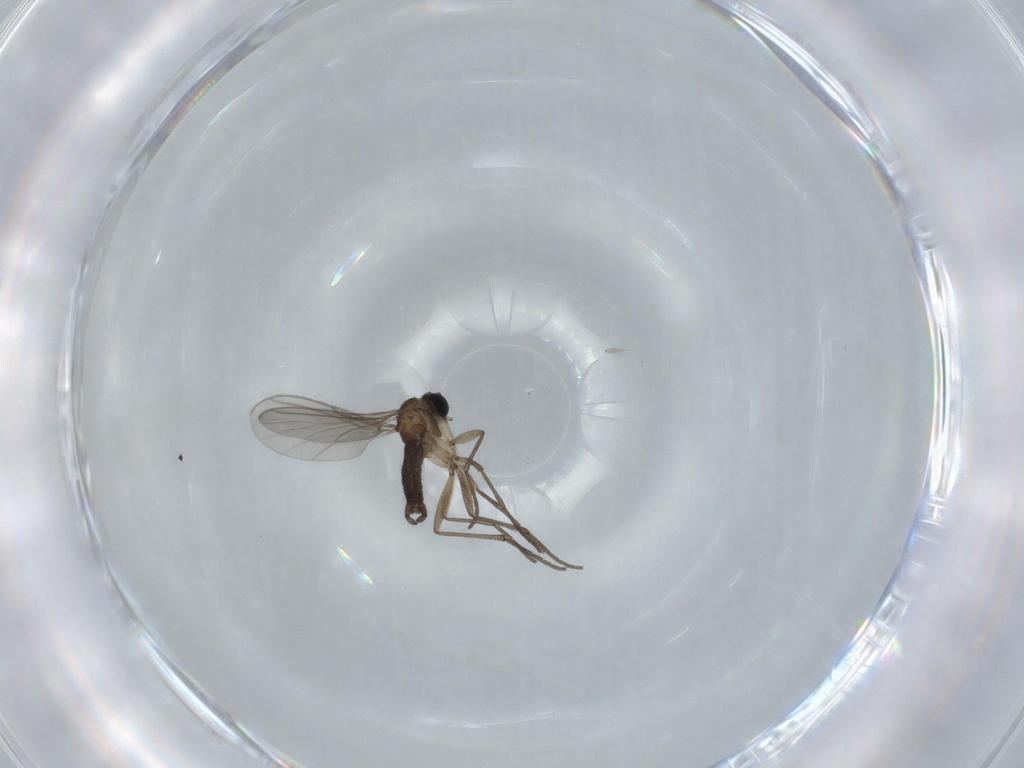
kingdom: Animalia
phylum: Arthropoda
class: Insecta
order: Diptera
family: Sciaridae
